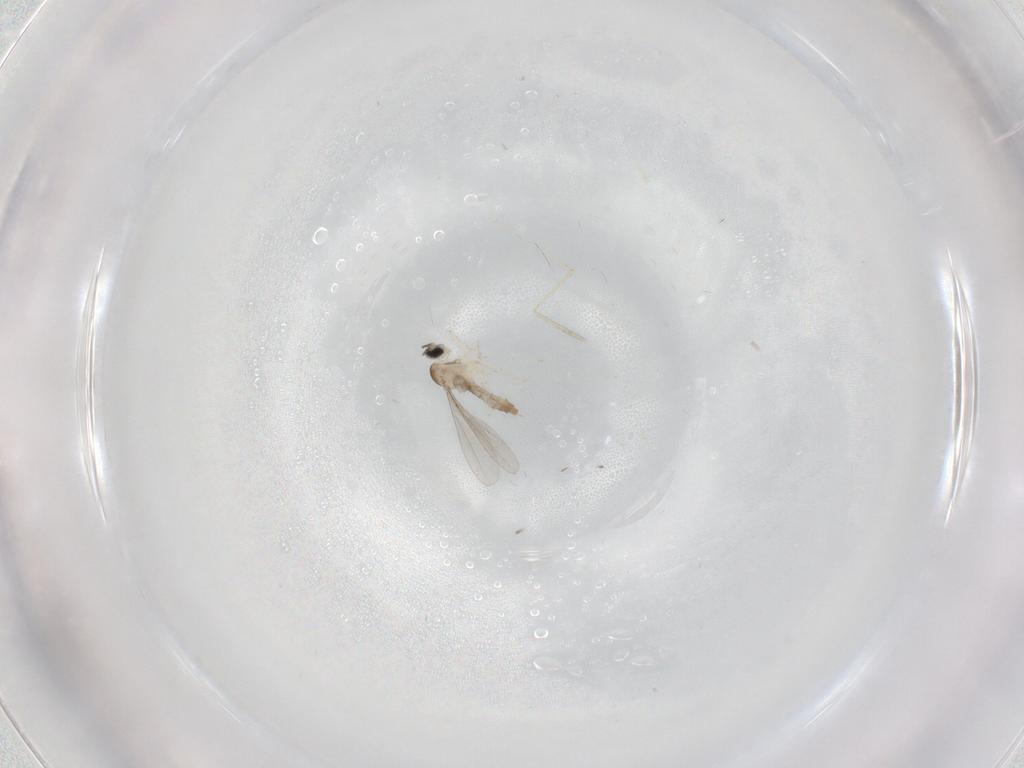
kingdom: Animalia
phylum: Arthropoda
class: Insecta
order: Diptera
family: Cecidomyiidae
